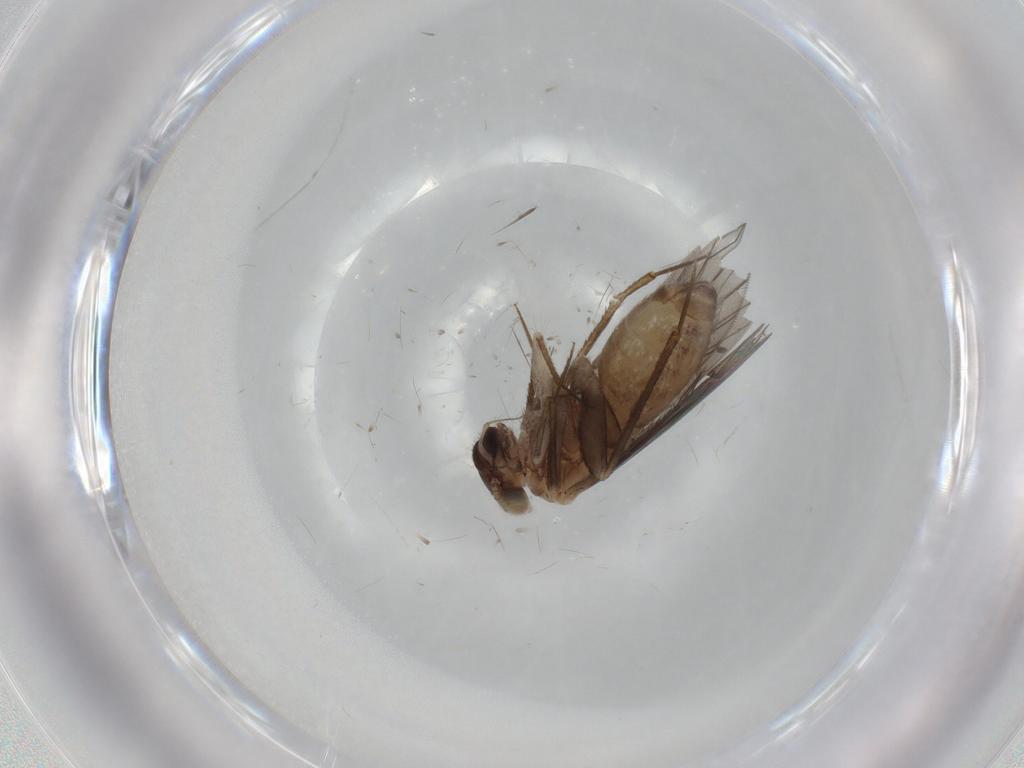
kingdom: Animalia
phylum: Arthropoda
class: Insecta
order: Psocodea
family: Lepidopsocidae
